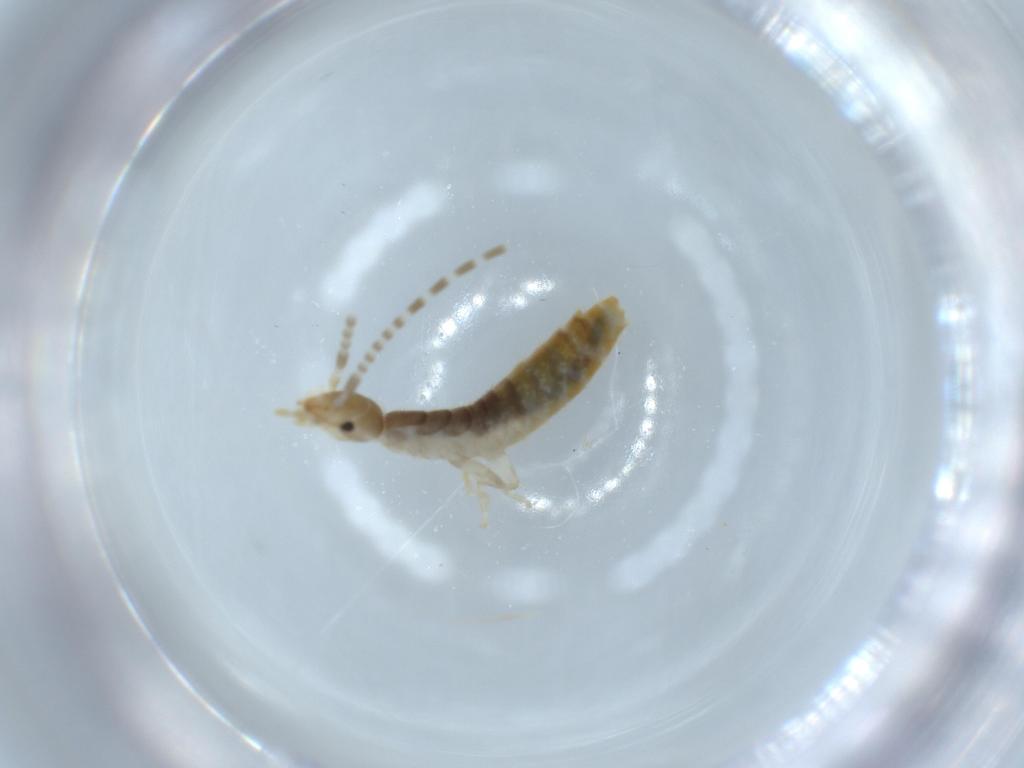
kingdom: Animalia
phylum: Arthropoda
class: Insecta
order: Dermaptera
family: Forficulidae
